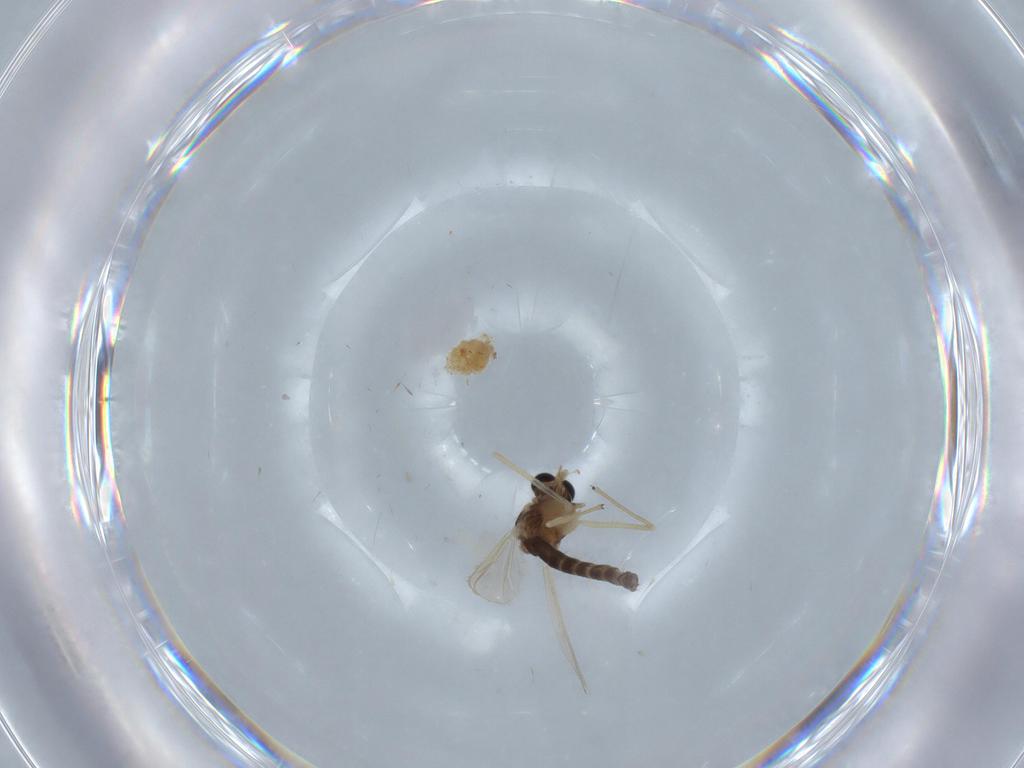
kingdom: Animalia
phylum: Arthropoda
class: Insecta
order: Diptera
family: Chironomidae
